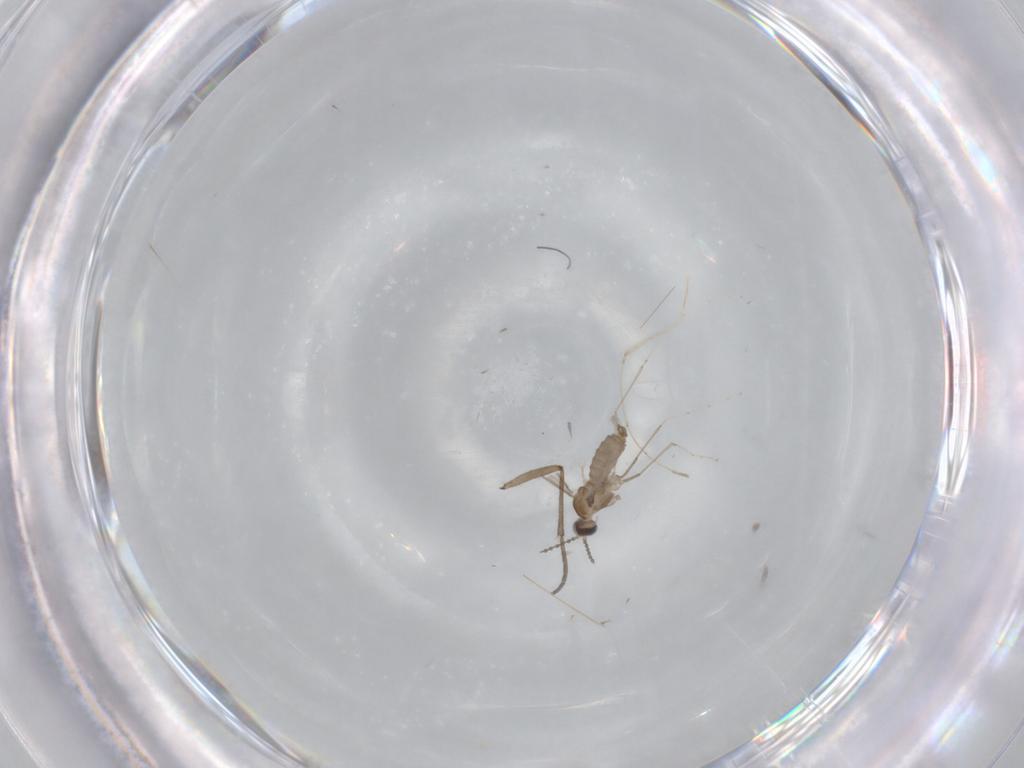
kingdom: Animalia
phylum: Arthropoda
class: Insecta
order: Diptera
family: Cecidomyiidae
